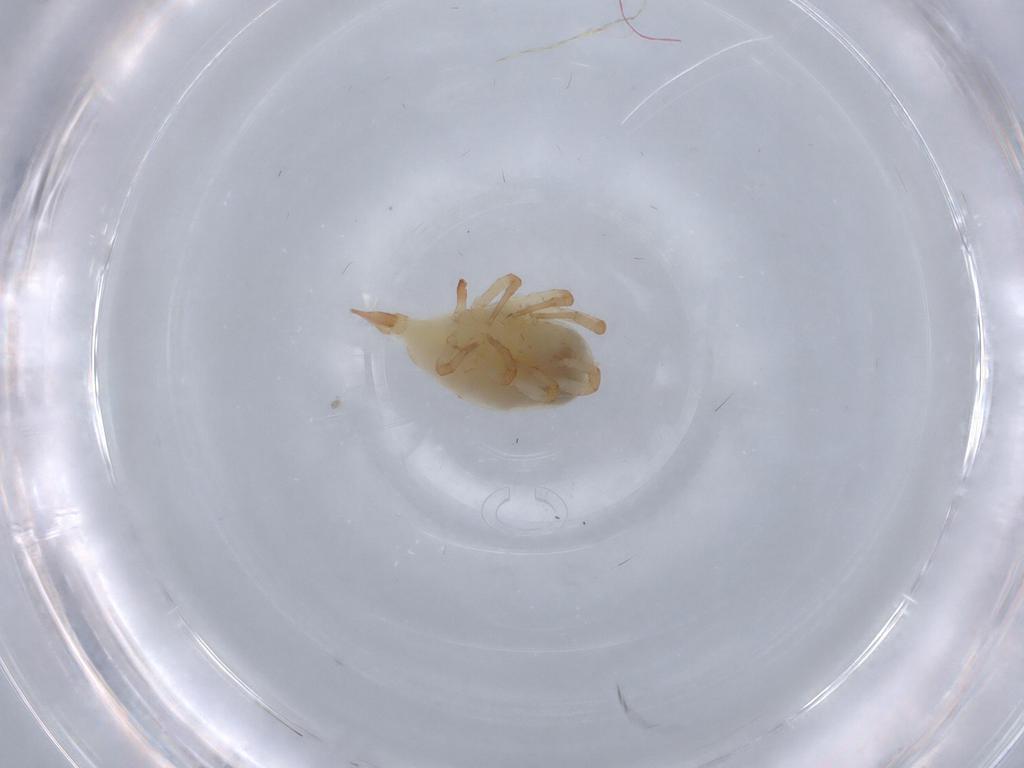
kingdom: Animalia
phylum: Arthropoda
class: Arachnida
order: Trombidiformes
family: Bdellidae
